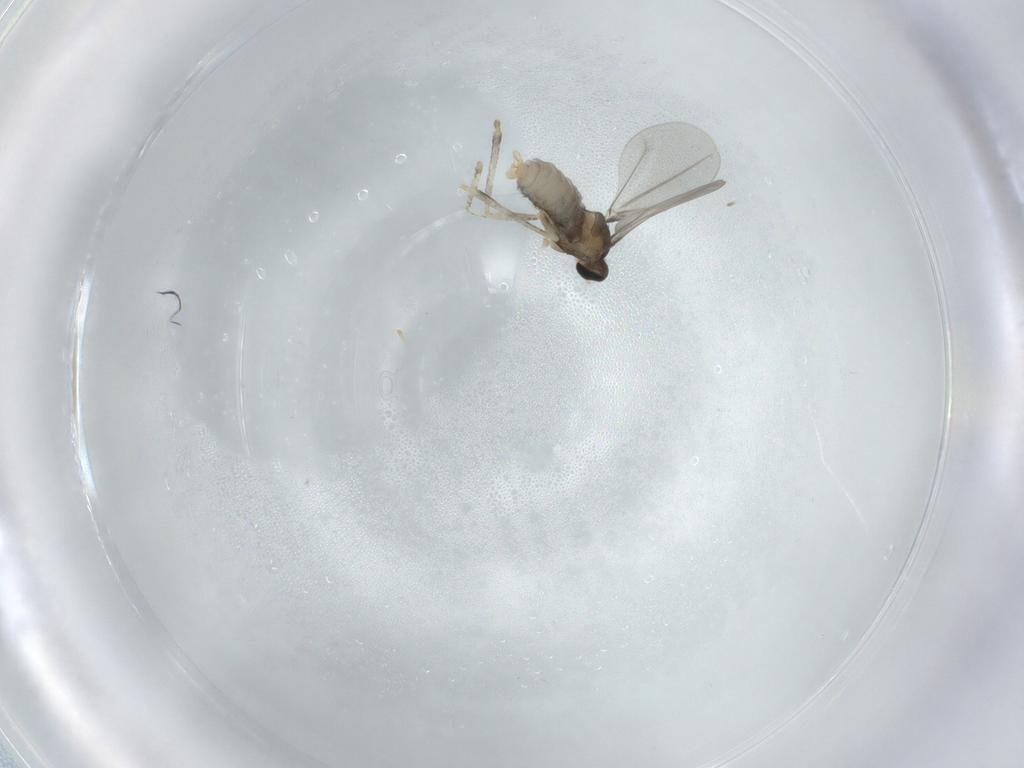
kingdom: Animalia
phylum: Arthropoda
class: Insecta
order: Diptera
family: Cecidomyiidae
